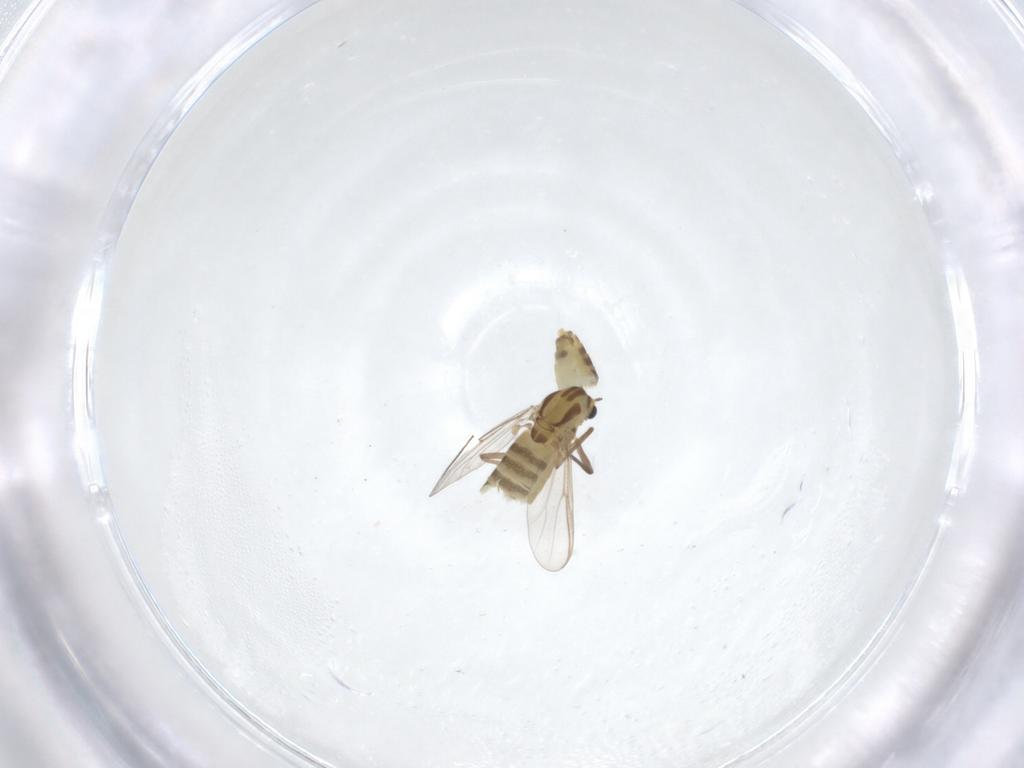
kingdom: Animalia
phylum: Arthropoda
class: Insecta
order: Diptera
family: Chironomidae
